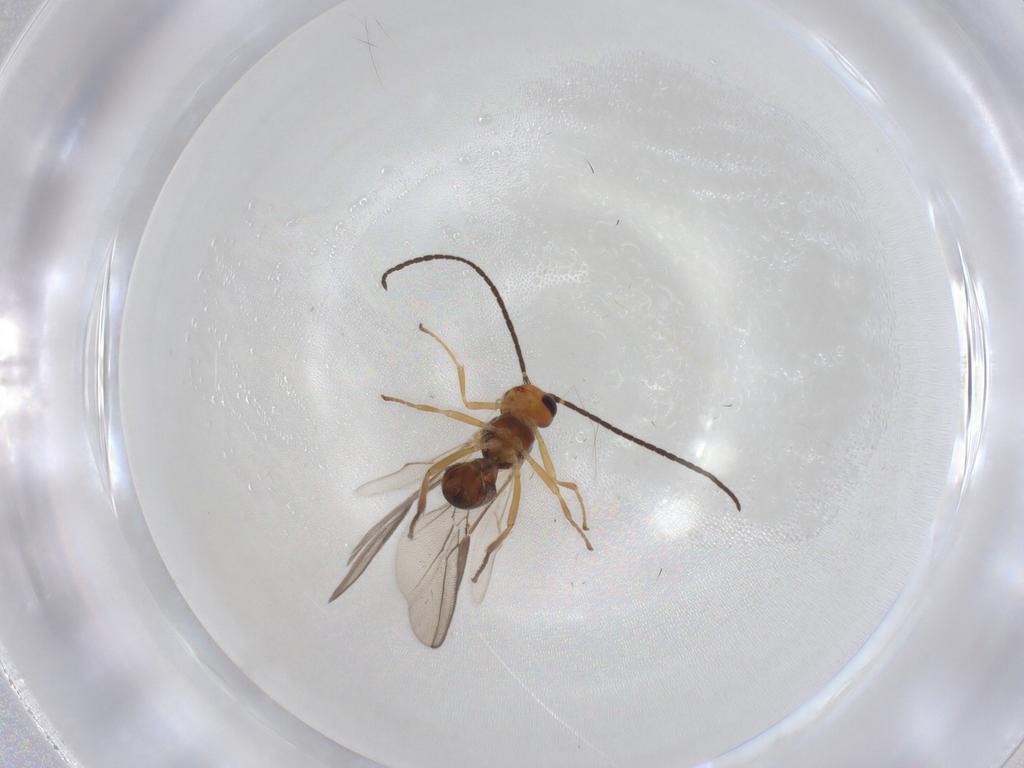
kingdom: Animalia
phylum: Arthropoda
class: Insecta
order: Hymenoptera
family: Braconidae
